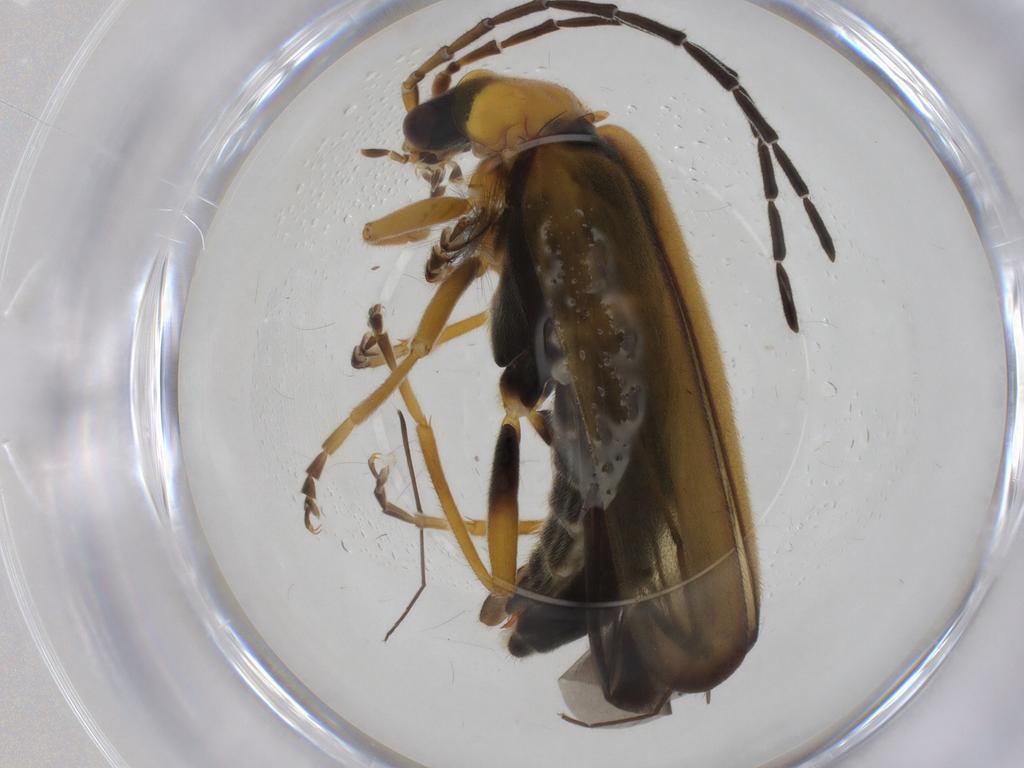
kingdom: Animalia
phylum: Arthropoda
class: Insecta
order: Coleoptera
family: Cantharidae
